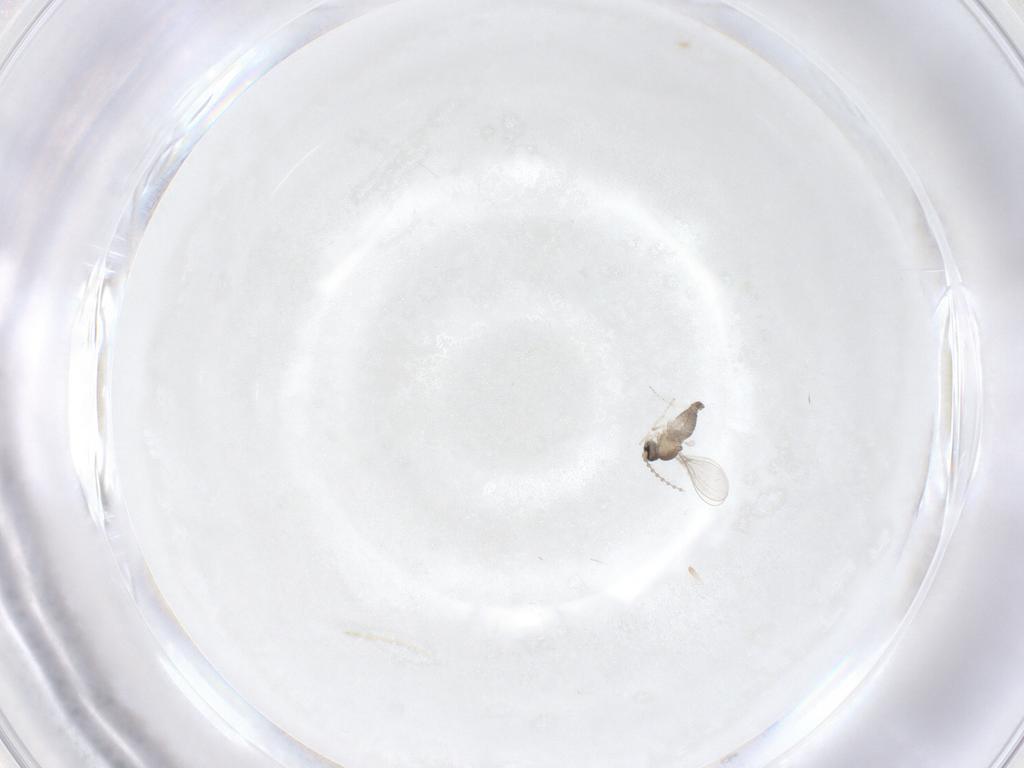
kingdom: Animalia
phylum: Arthropoda
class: Insecta
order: Diptera
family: Cecidomyiidae
